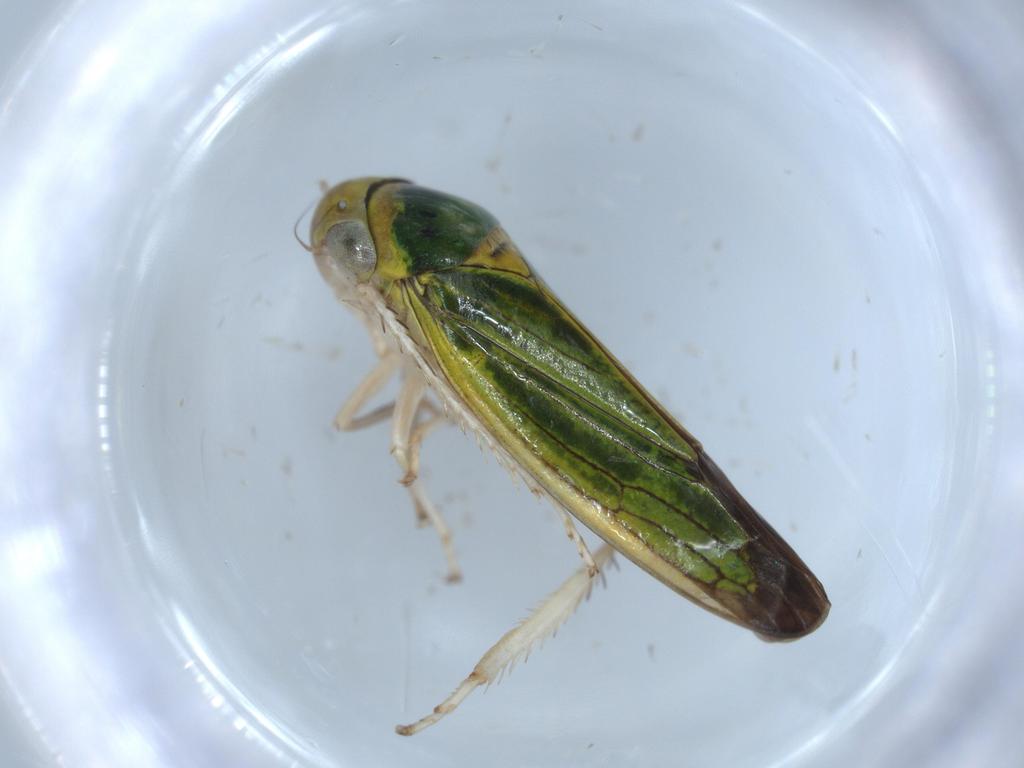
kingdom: Animalia
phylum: Arthropoda
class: Insecta
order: Hemiptera
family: Cicadellidae
